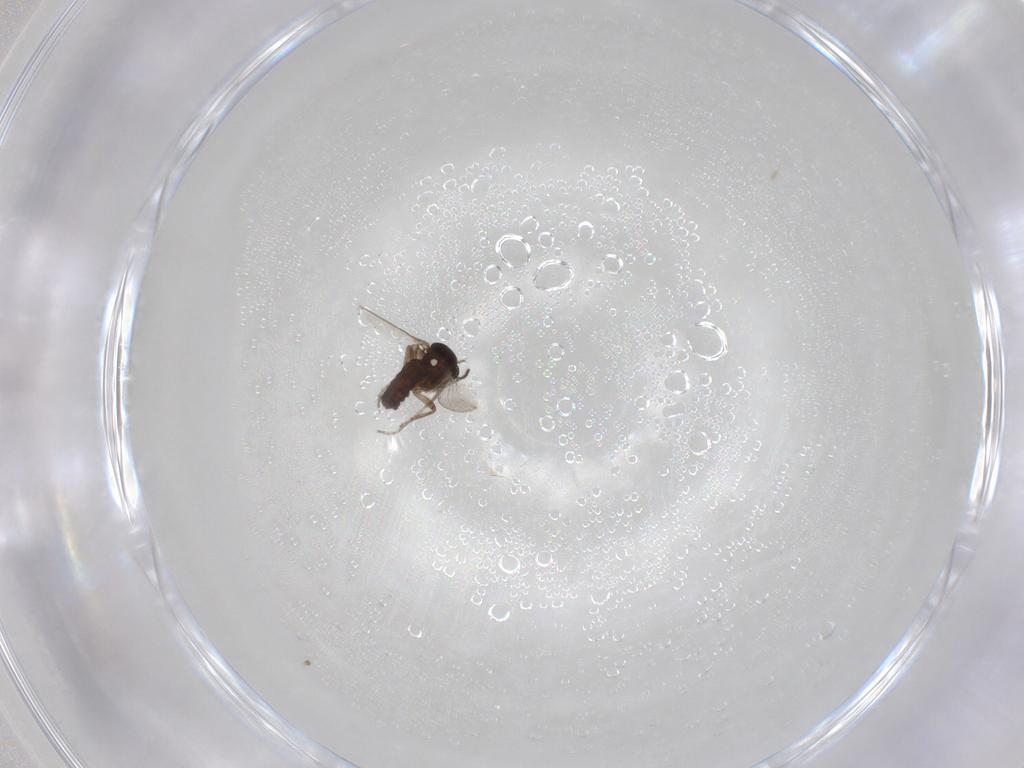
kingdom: Animalia
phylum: Arthropoda
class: Insecta
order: Diptera
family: Ceratopogonidae
